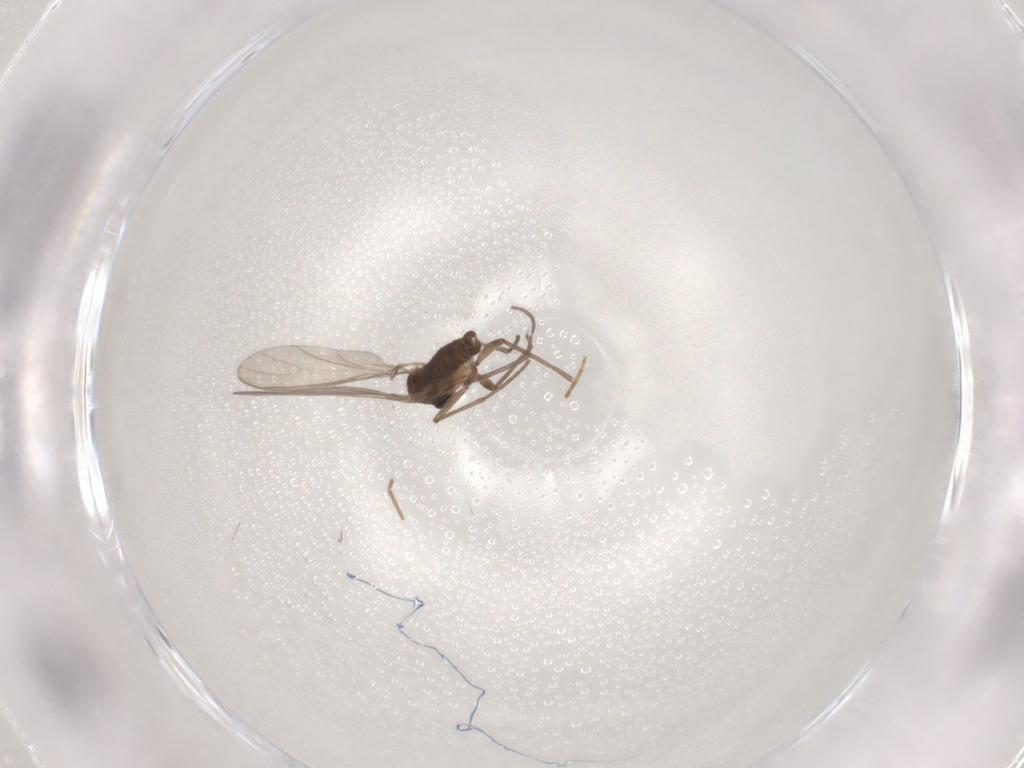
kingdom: Animalia
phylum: Arthropoda
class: Insecta
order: Diptera
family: Sciaridae
